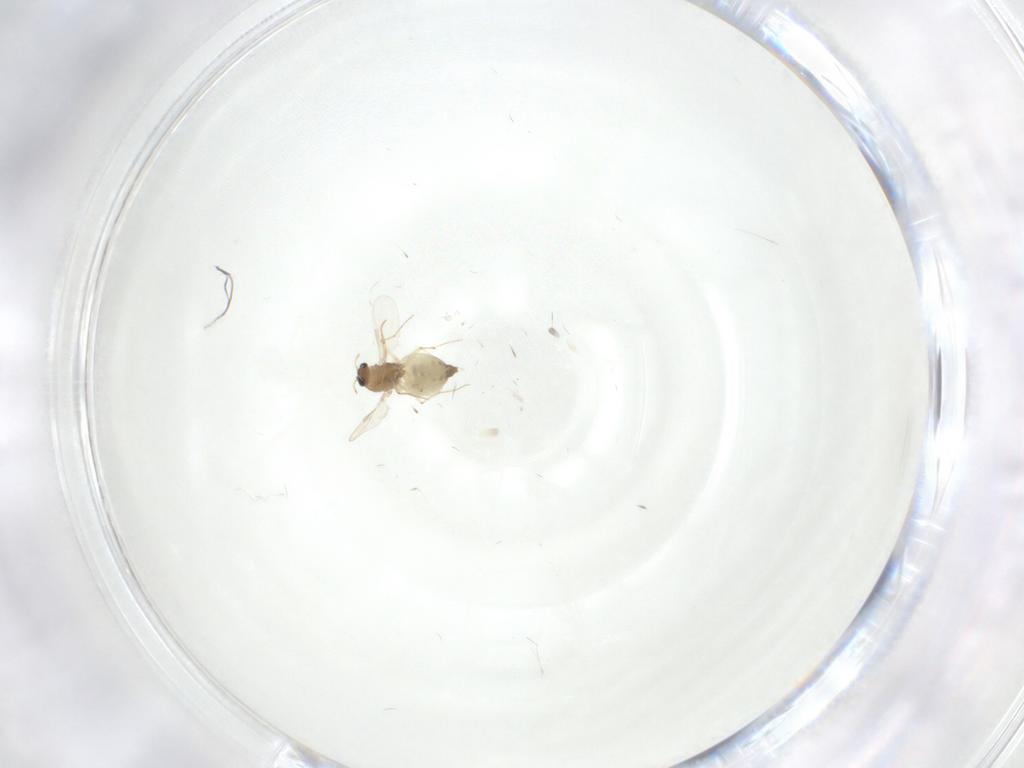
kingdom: Animalia
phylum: Arthropoda
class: Insecta
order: Diptera
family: Chironomidae
